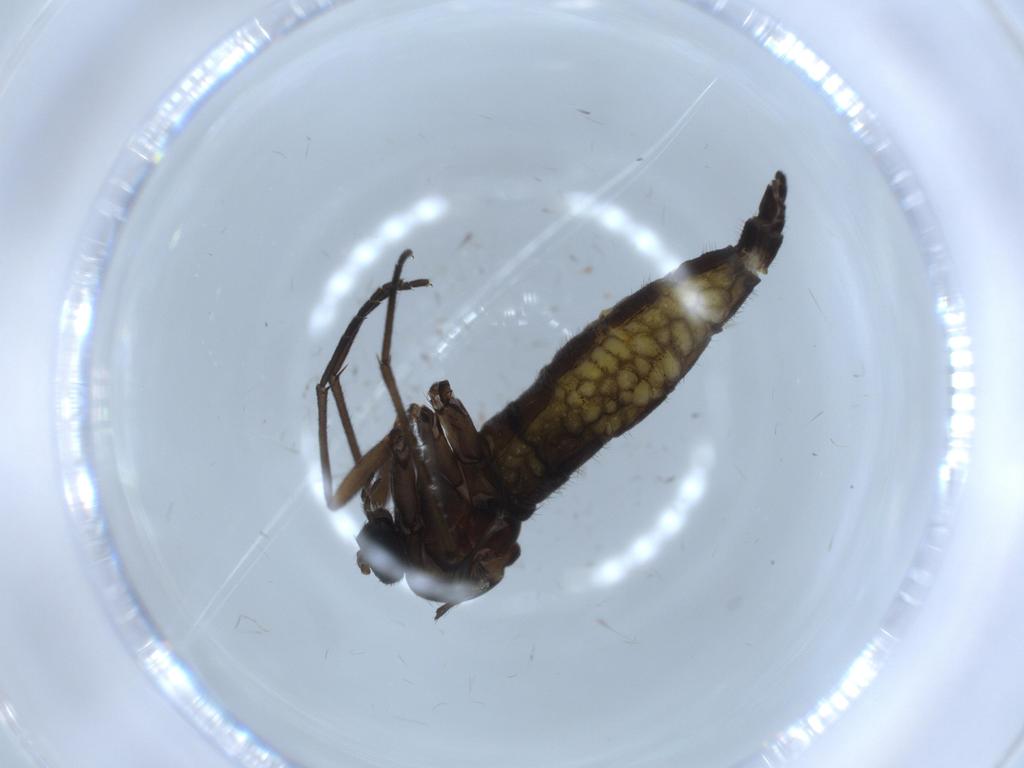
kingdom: Animalia
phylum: Arthropoda
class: Insecta
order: Diptera
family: Sciaridae
